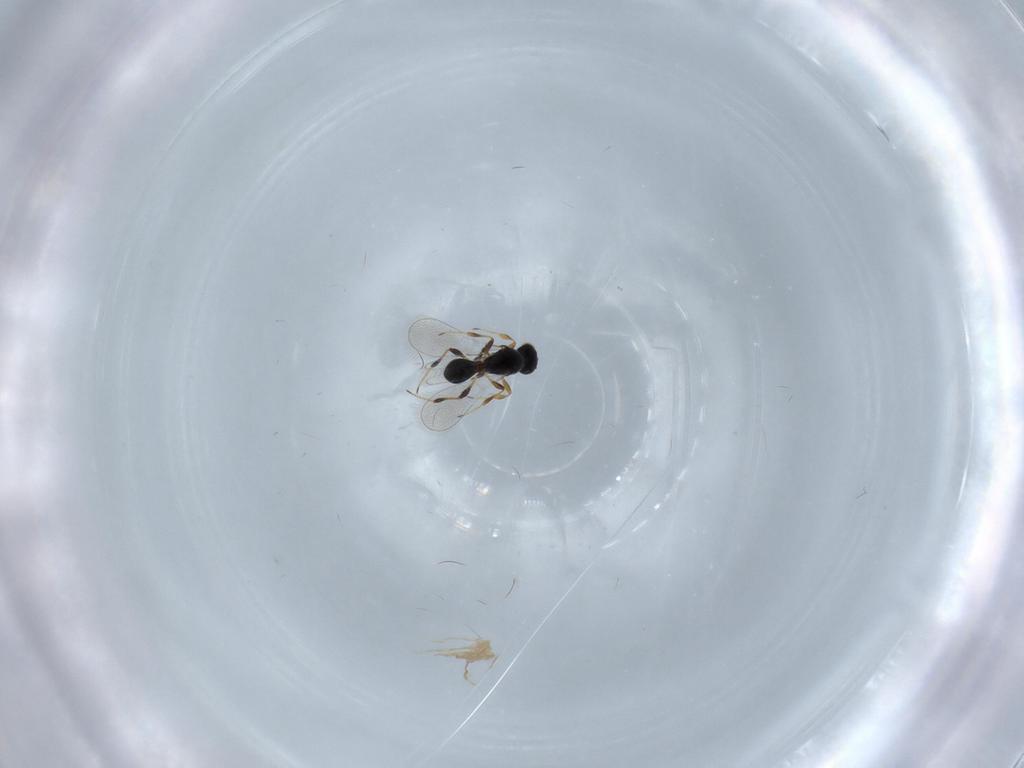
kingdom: Animalia
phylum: Arthropoda
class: Insecta
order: Hymenoptera
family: Platygastridae
